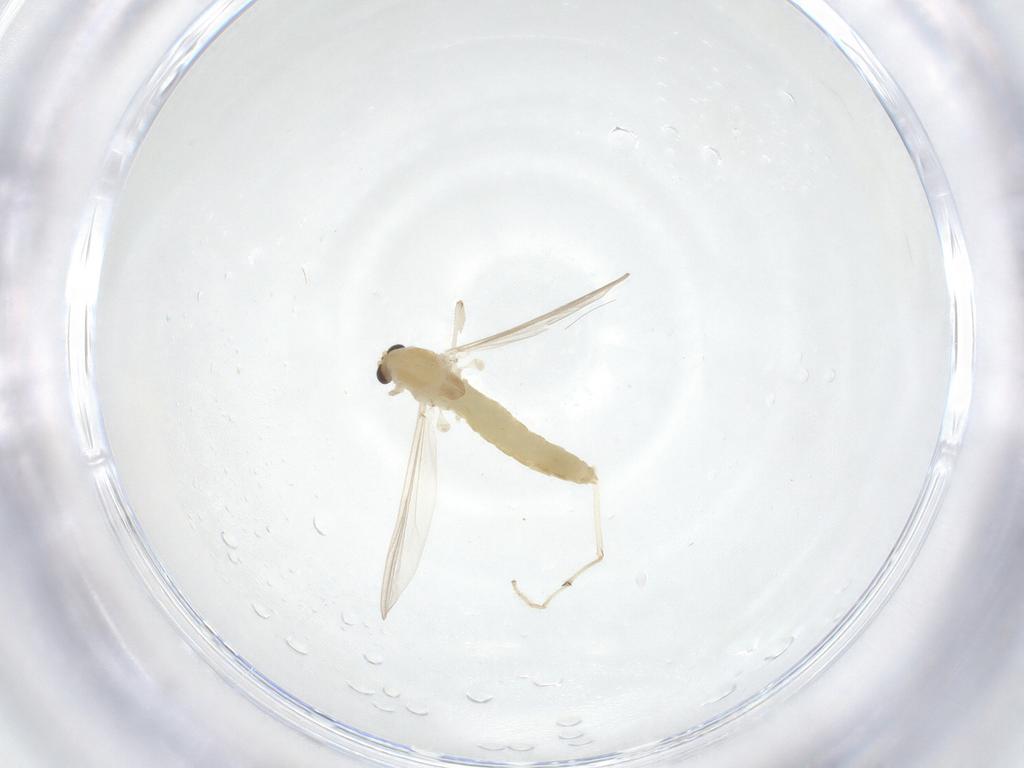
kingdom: Animalia
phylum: Arthropoda
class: Insecta
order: Diptera
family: Chironomidae
